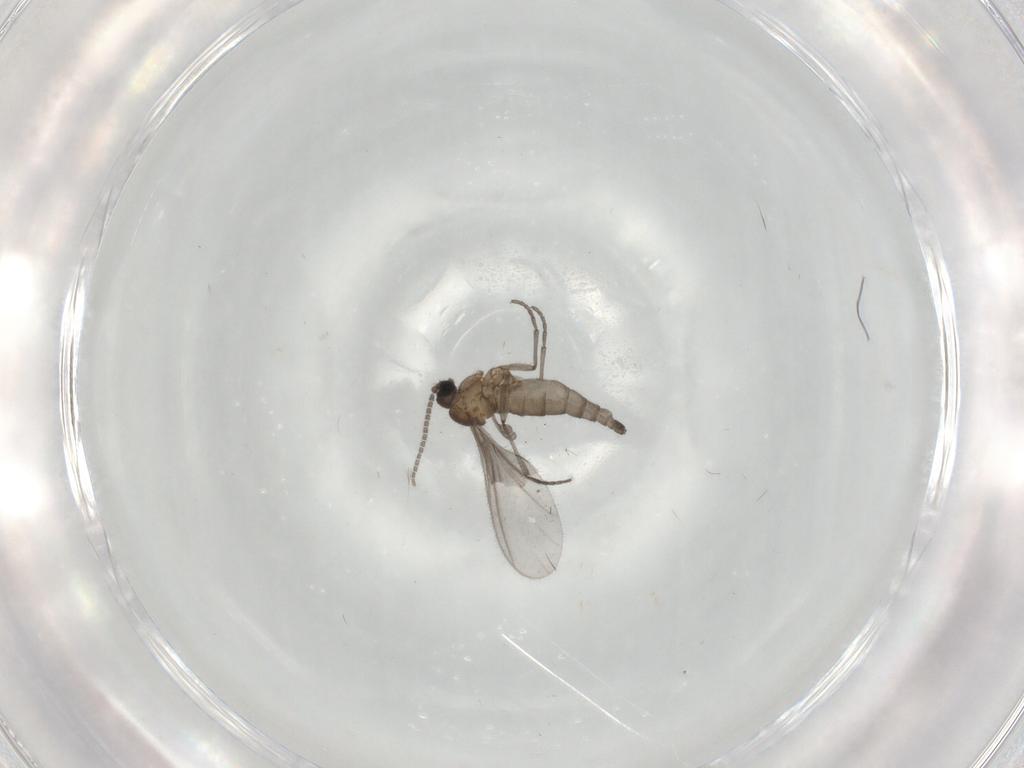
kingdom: Animalia
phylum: Arthropoda
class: Insecta
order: Diptera
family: Sciaridae
